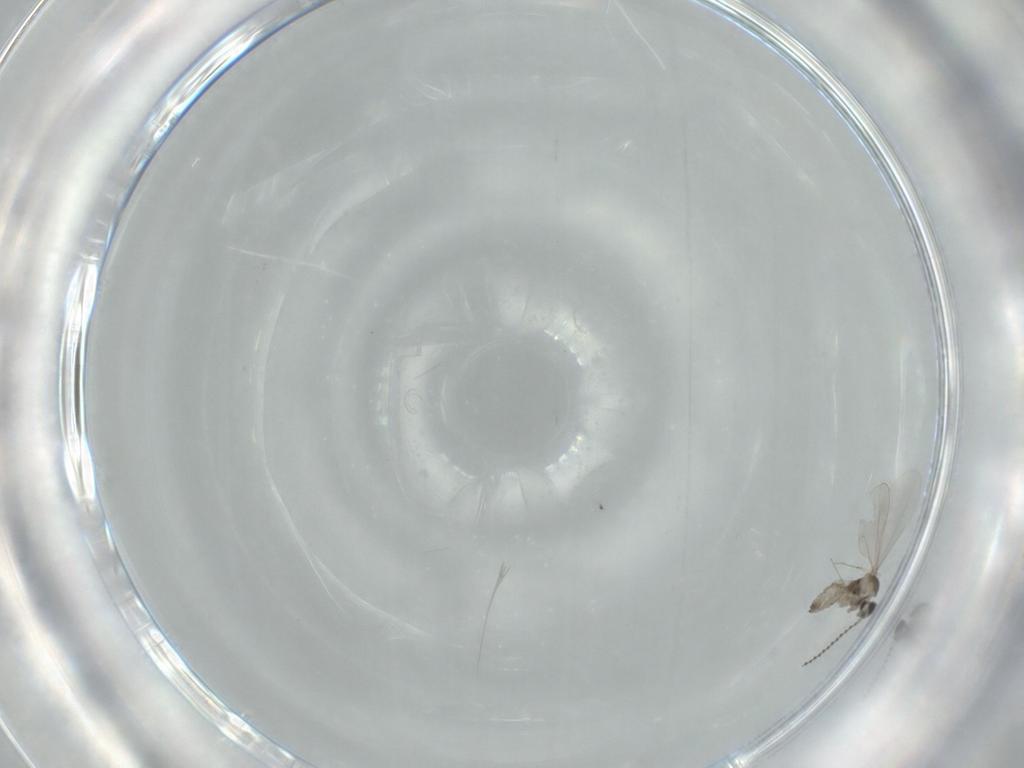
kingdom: Animalia
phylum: Arthropoda
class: Insecta
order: Diptera
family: Cecidomyiidae
